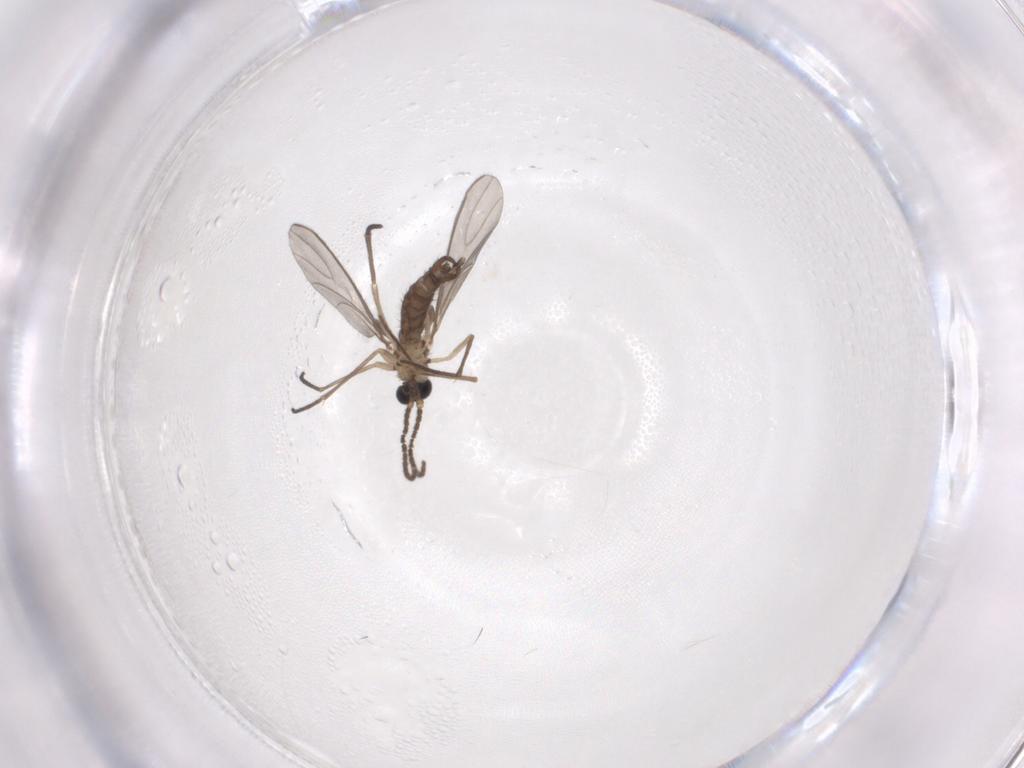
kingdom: Animalia
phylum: Arthropoda
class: Insecta
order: Diptera
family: Sciaridae
